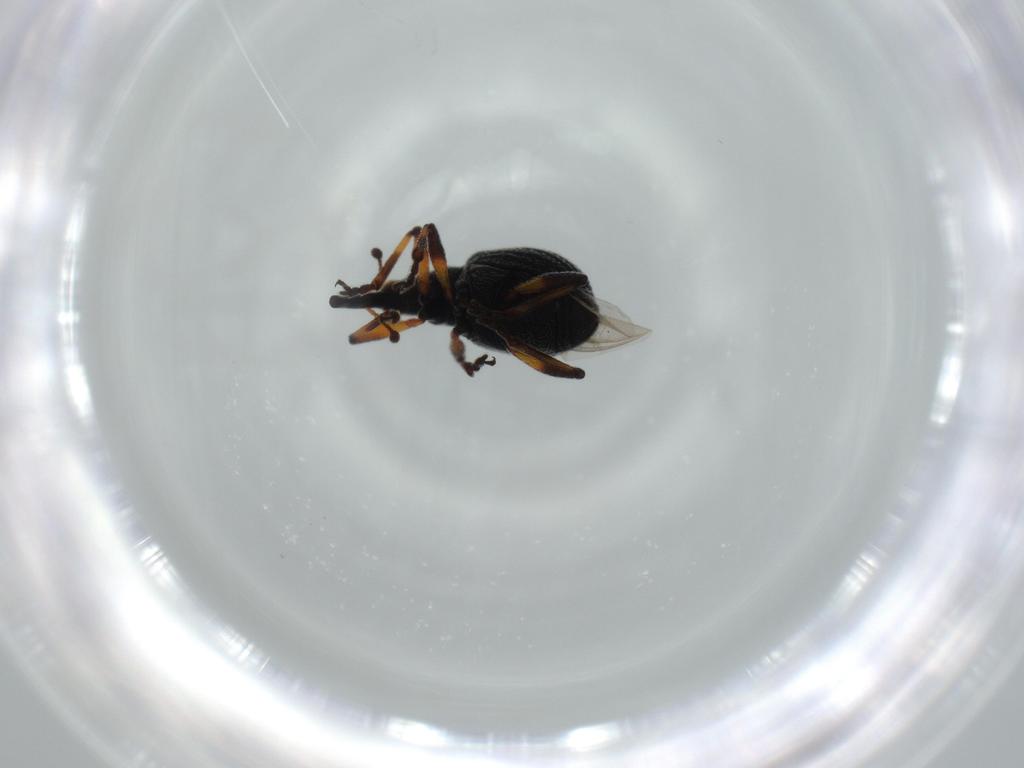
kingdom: Animalia
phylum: Arthropoda
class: Insecta
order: Coleoptera
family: Brentidae
